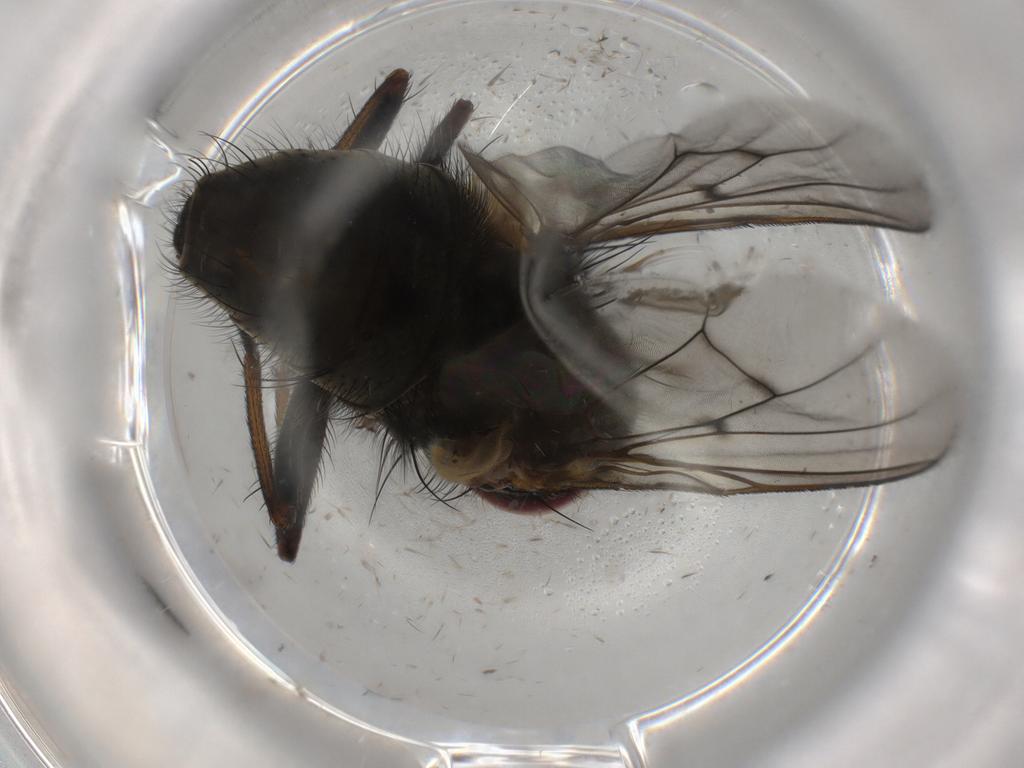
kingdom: Animalia
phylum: Arthropoda
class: Insecta
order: Diptera
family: Muscidae
